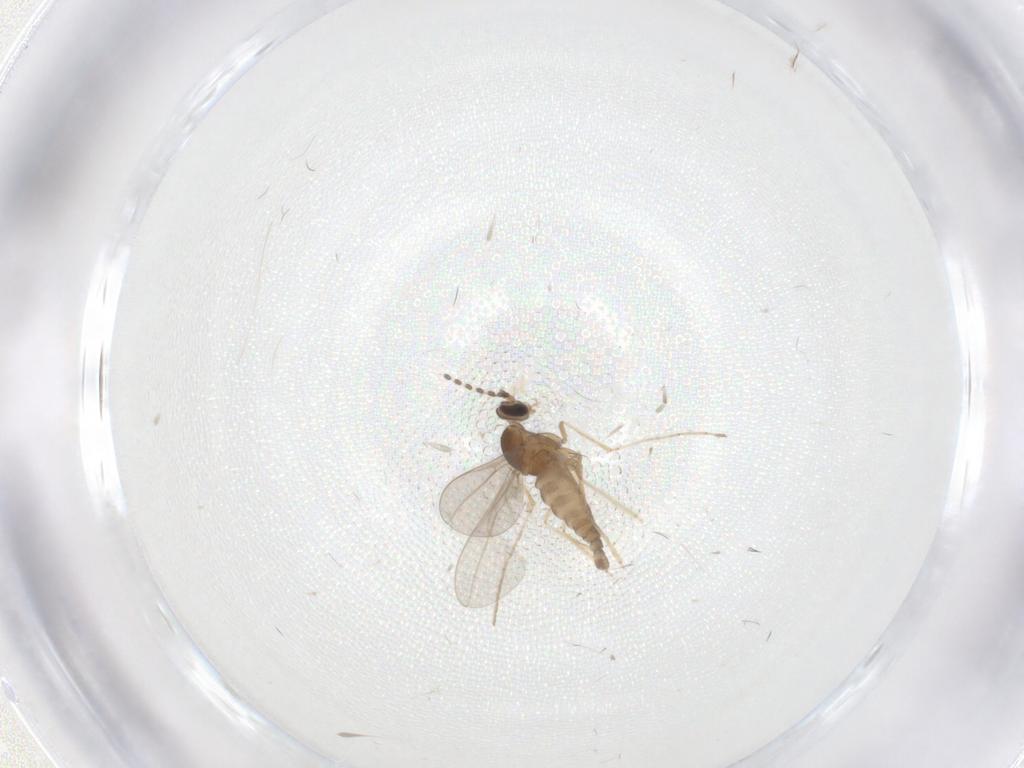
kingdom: Animalia
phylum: Arthropoda
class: Insecta
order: Diptera
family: Cecidomyiidae
